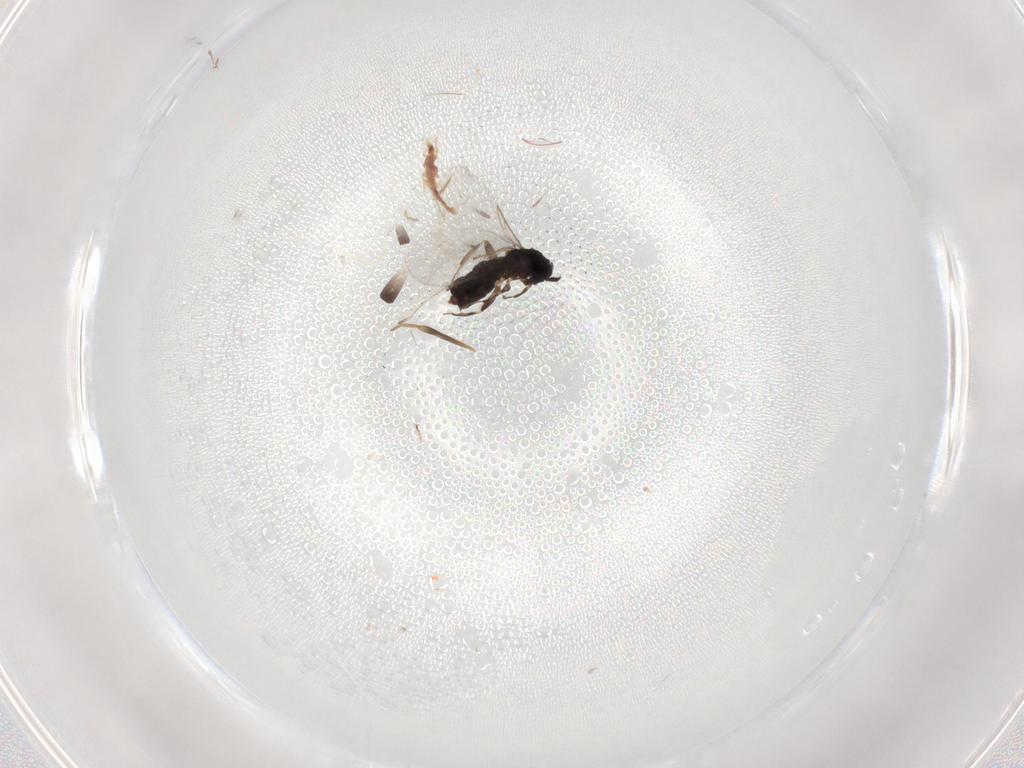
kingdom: Animalia
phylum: Arthropoda
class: Insecta
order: Diptera
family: Scatopsidae
